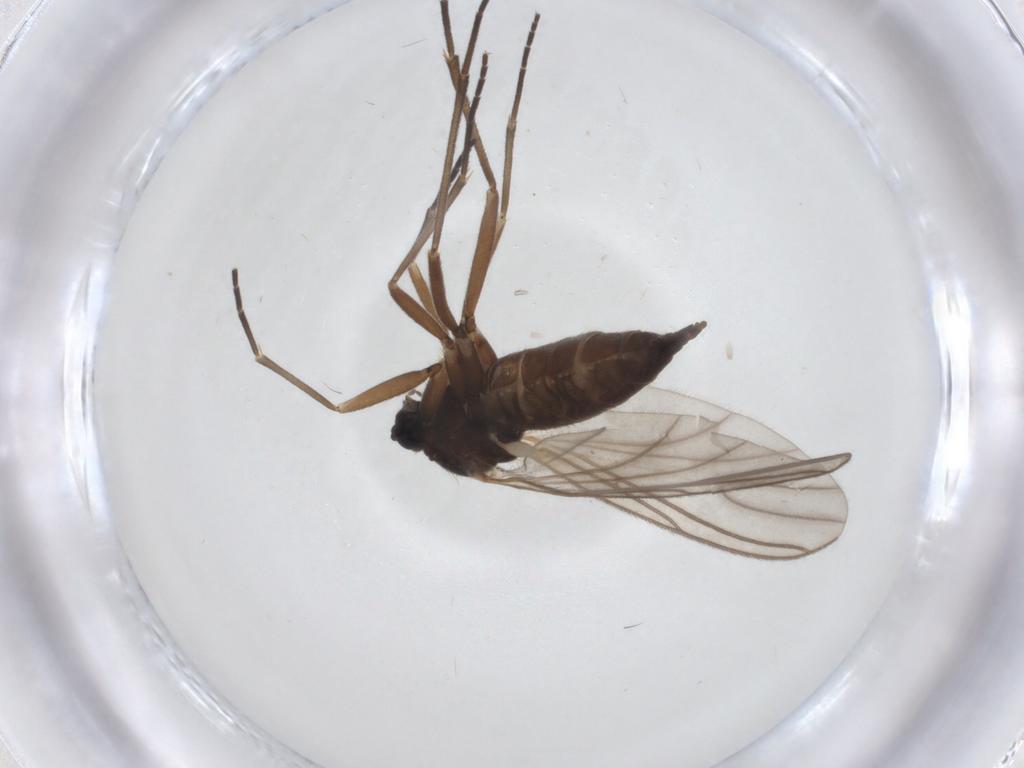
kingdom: Animalia
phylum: Arthropoda
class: Insecta
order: Diptera
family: Sciaridae
